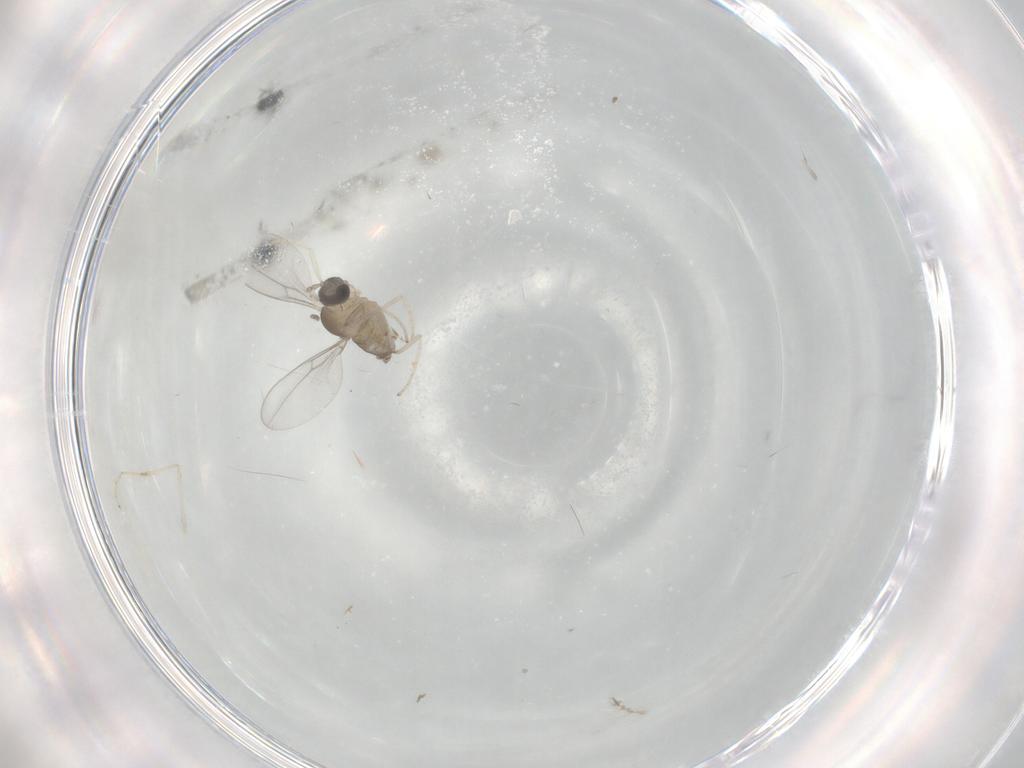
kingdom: Animalia
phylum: Arthropoda
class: Insecta
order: Diptera
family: Cecidomyiidae
